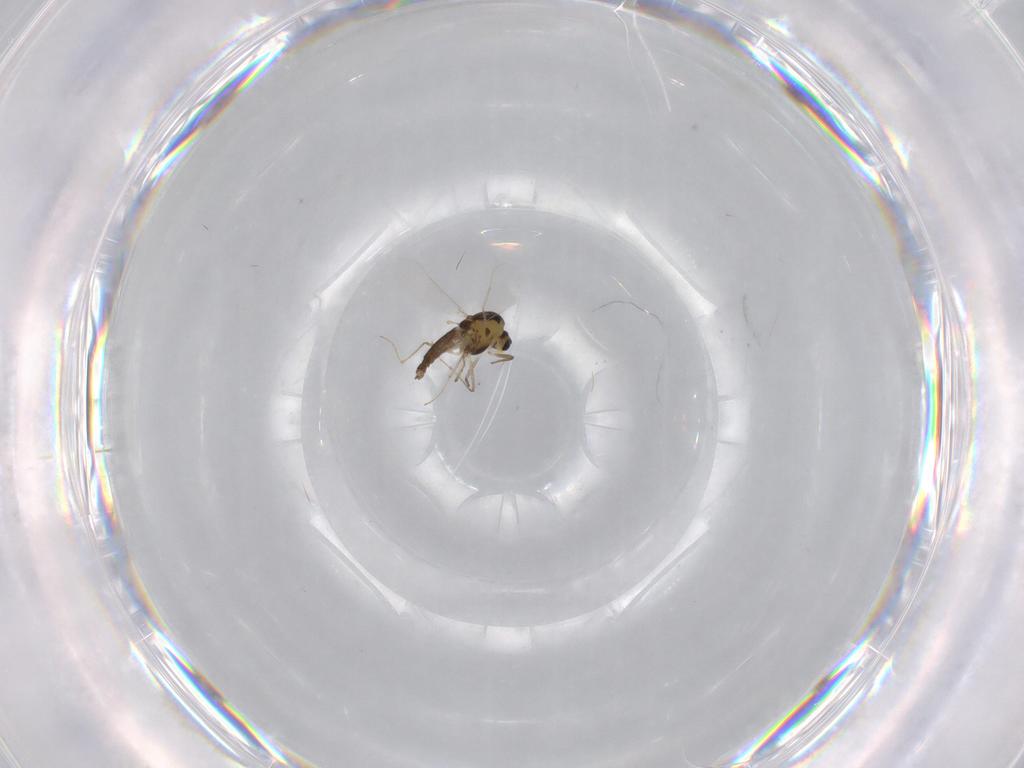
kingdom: Animalia
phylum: Arthropoda
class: Insecta
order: Diptera
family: Chironomidae
